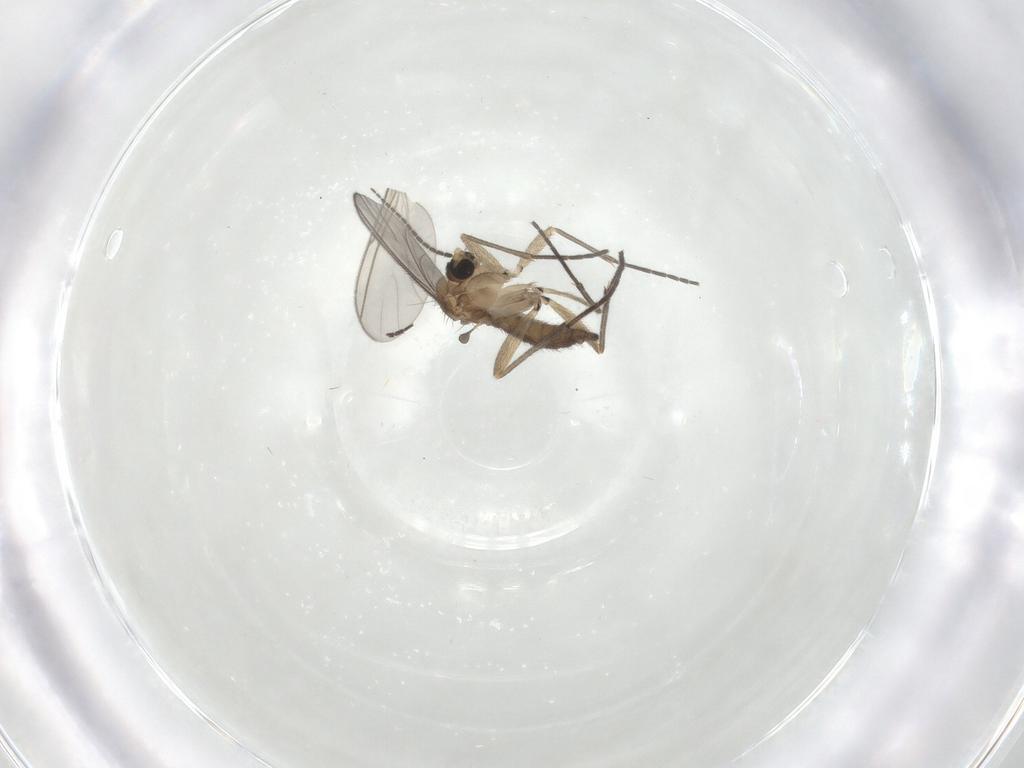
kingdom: Animalia
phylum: Arthropoda
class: Insecta
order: Diptera
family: Sciaridae
